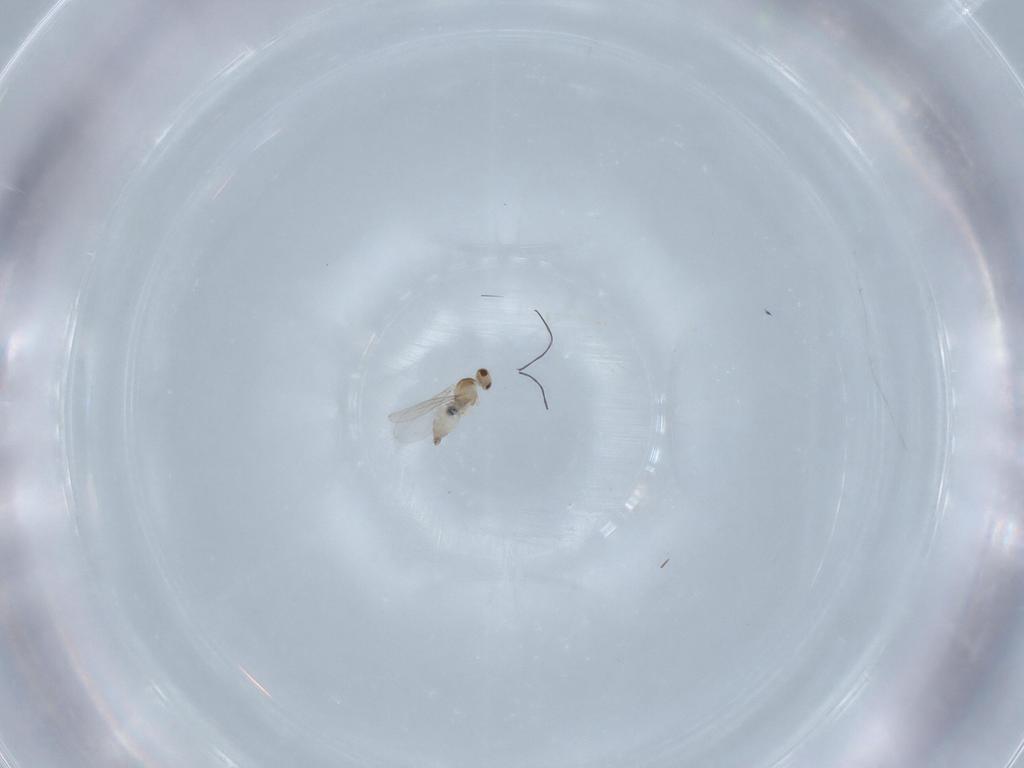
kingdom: Animalia
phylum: Arthropoda
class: Insecta
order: Diptera
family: Cecidomyiidae
